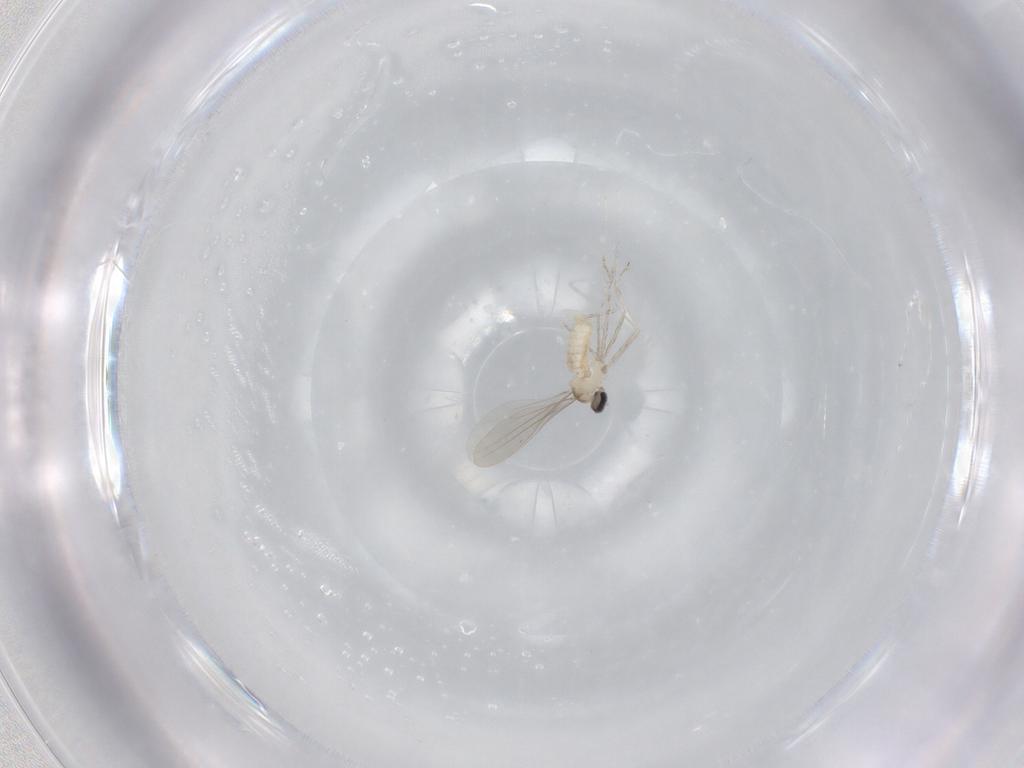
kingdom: Animalia
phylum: Arthropoda
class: Insecta
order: Diptera
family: Cecidomyiidae
